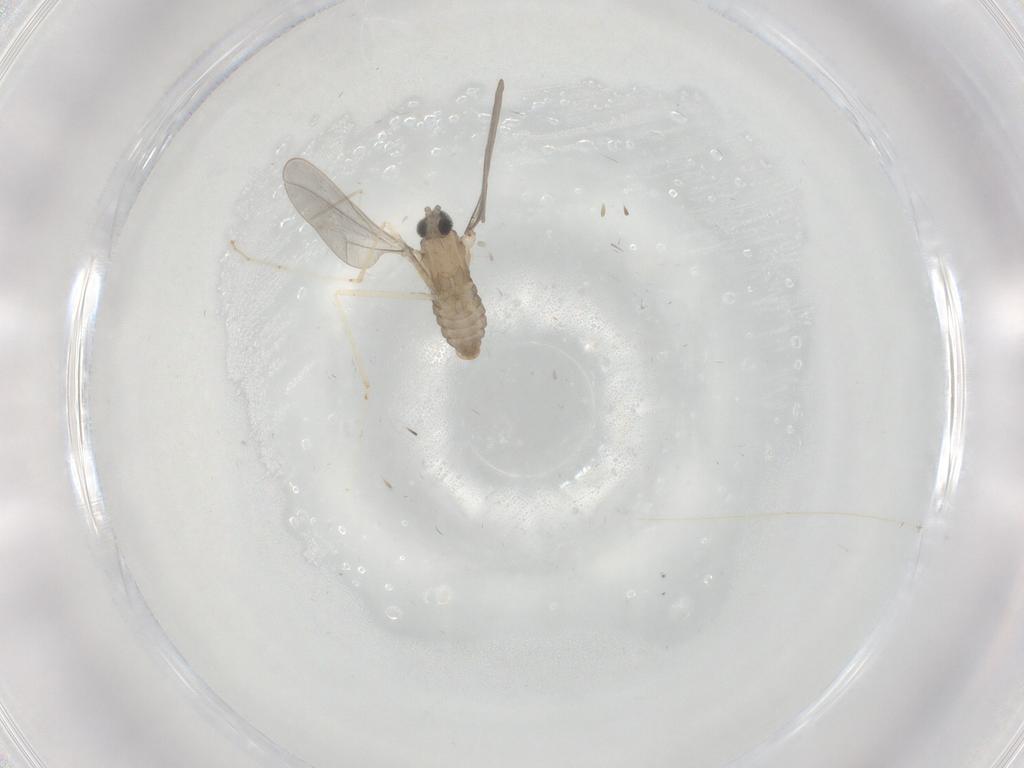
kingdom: Animalia
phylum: Arthropoda
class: Insecta
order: Diptera
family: Cecidomyiidae
